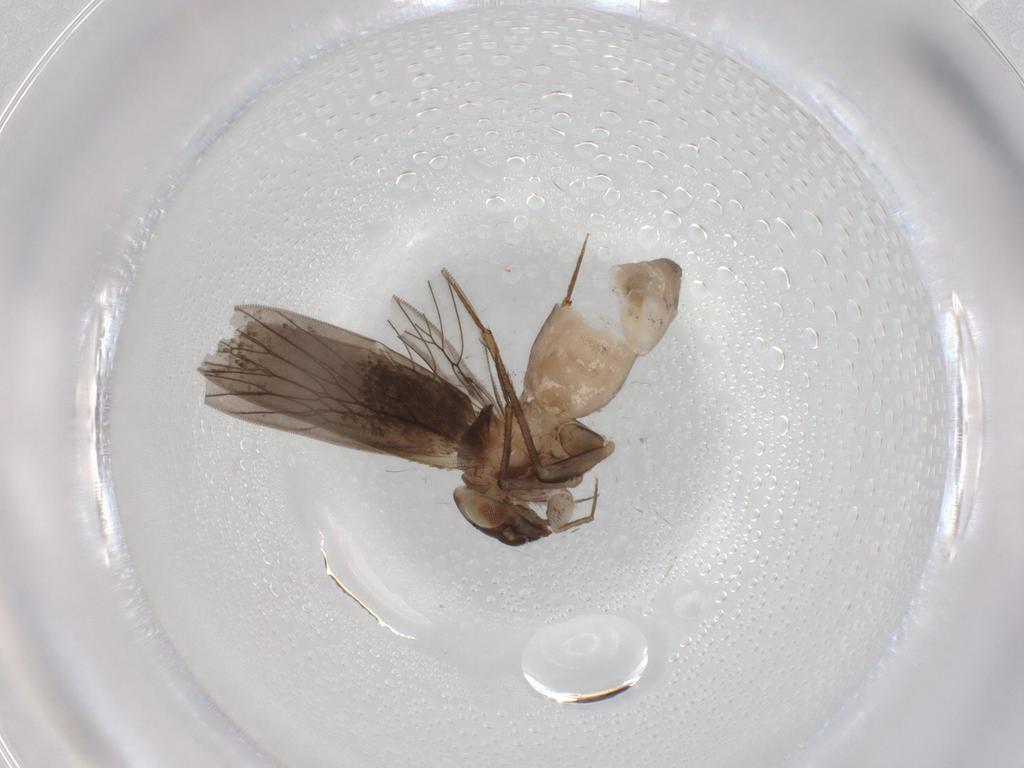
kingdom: Animalia
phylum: Arthropoda
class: Insecta
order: Psocodea
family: Lepidopsocidae
